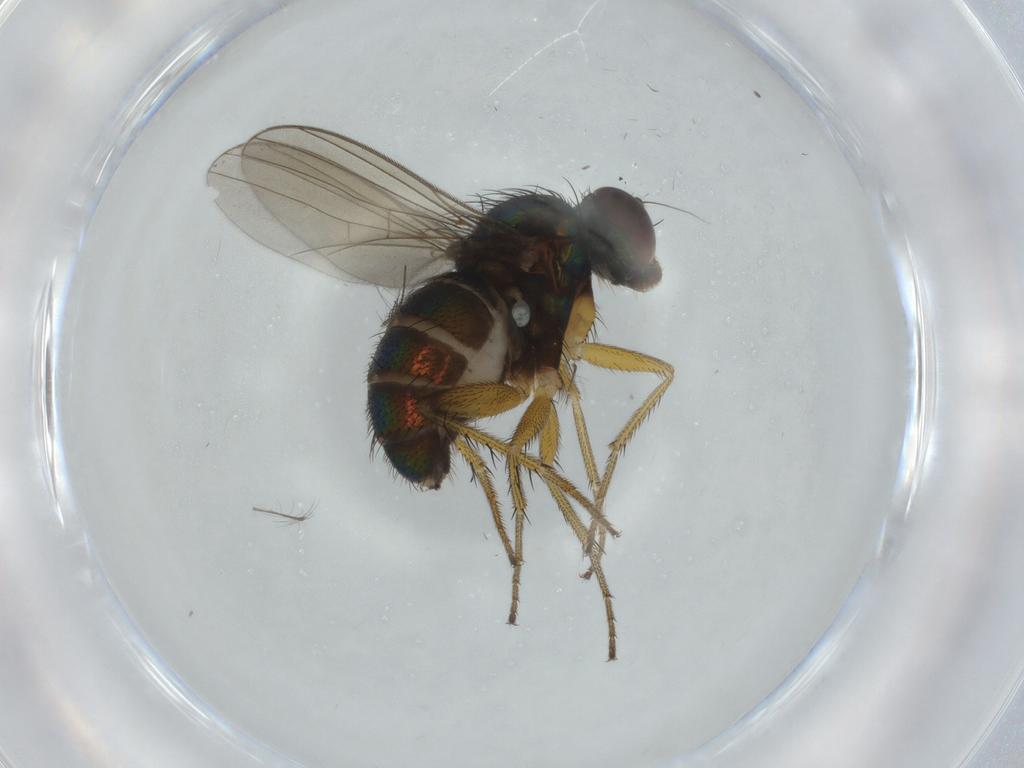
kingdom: Animalia
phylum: Arthropoda
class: Insecta
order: Diptera
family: Dolichopodidae
